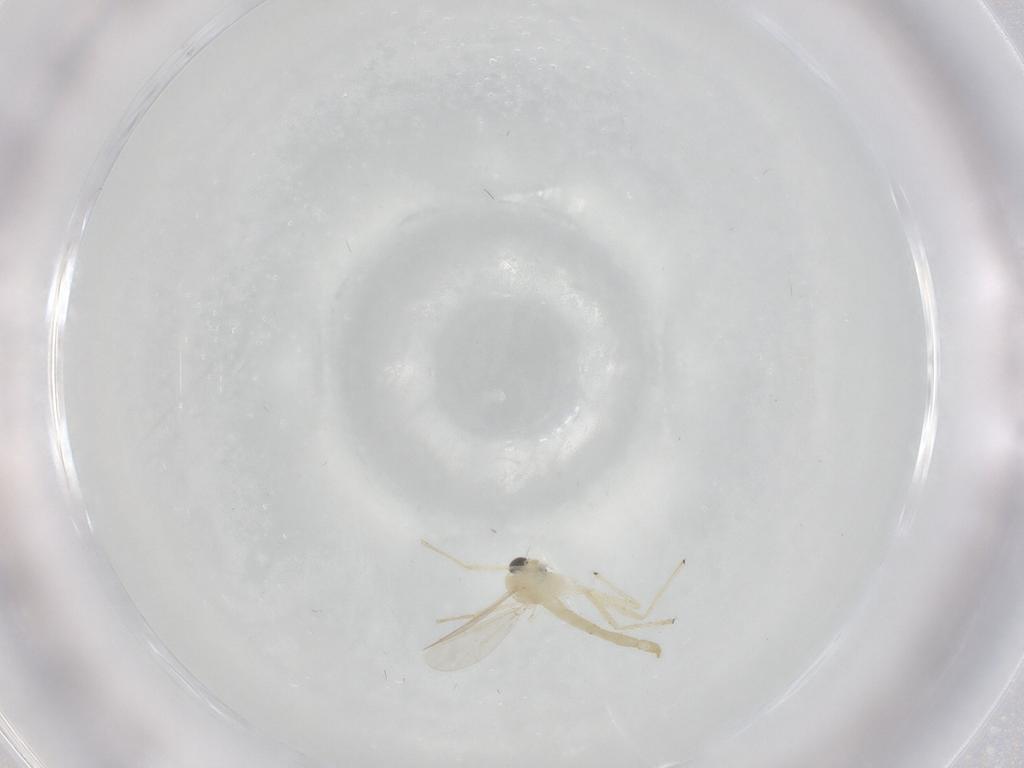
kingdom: Animalia
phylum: Arthropoda
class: Insecta
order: Diptera
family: Chironomidae
